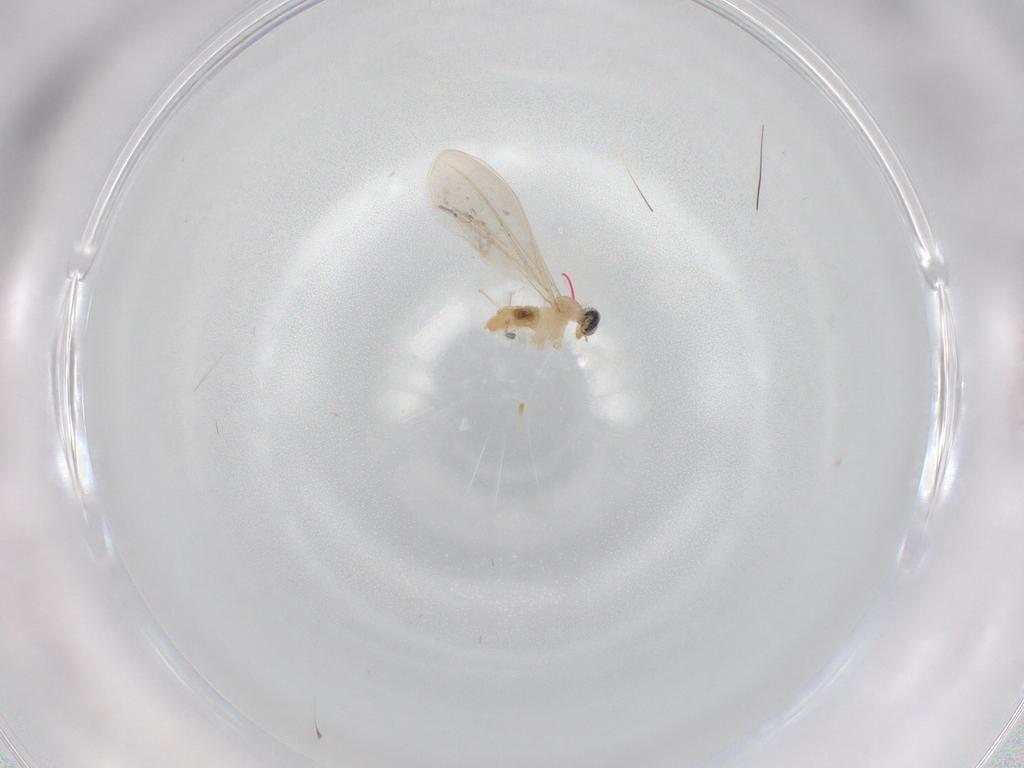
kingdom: Animalia
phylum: Arthropoda
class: Insecta
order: Diptera
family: Cecidomyiidae
